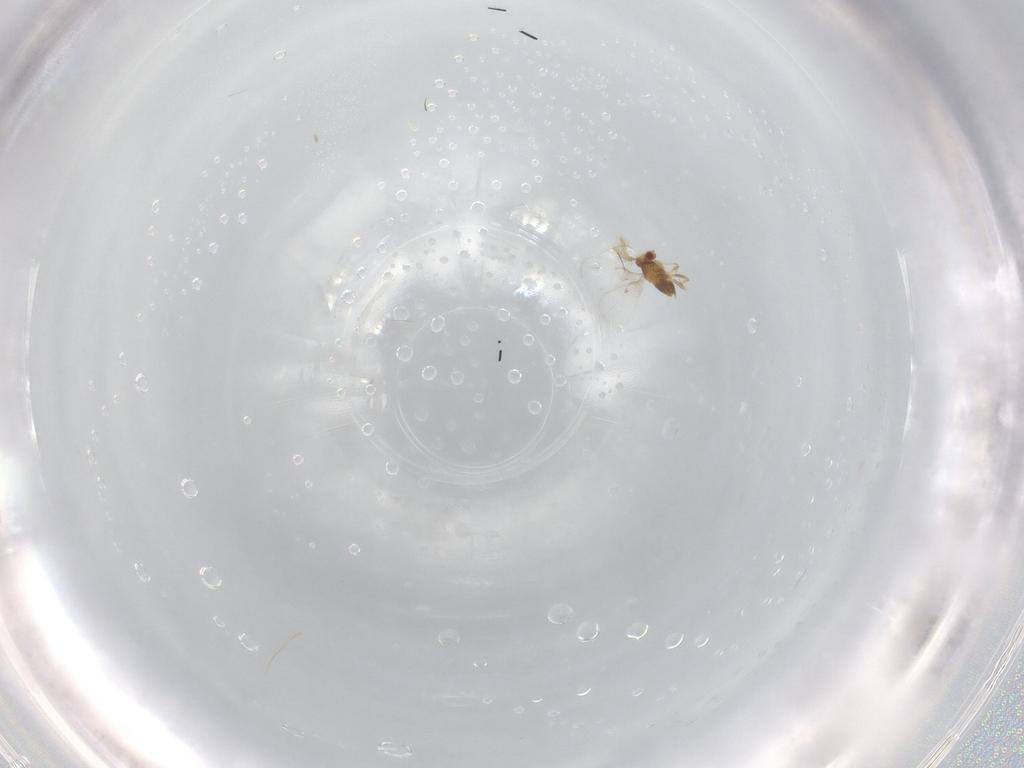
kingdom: Animalia
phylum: Arthropoda
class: Insecta
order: Hymenoptera
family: Trichogrammatidae
